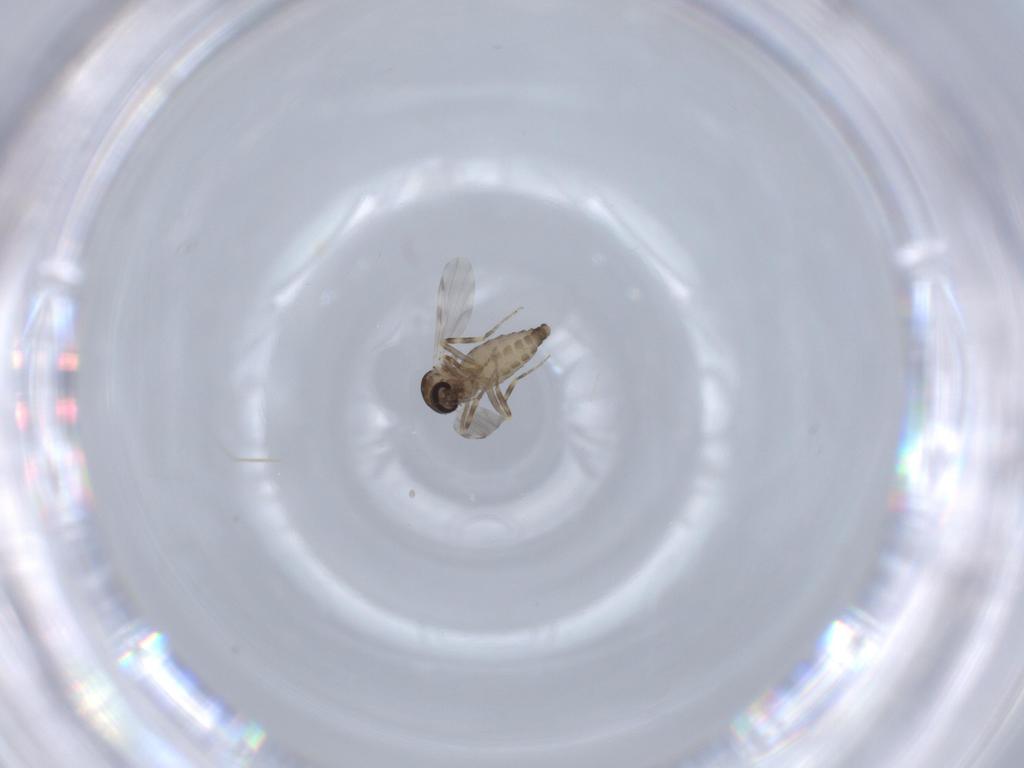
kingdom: Animalia
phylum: Arthropoda
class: Insecta
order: Diptera
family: Ceratopogonidae
